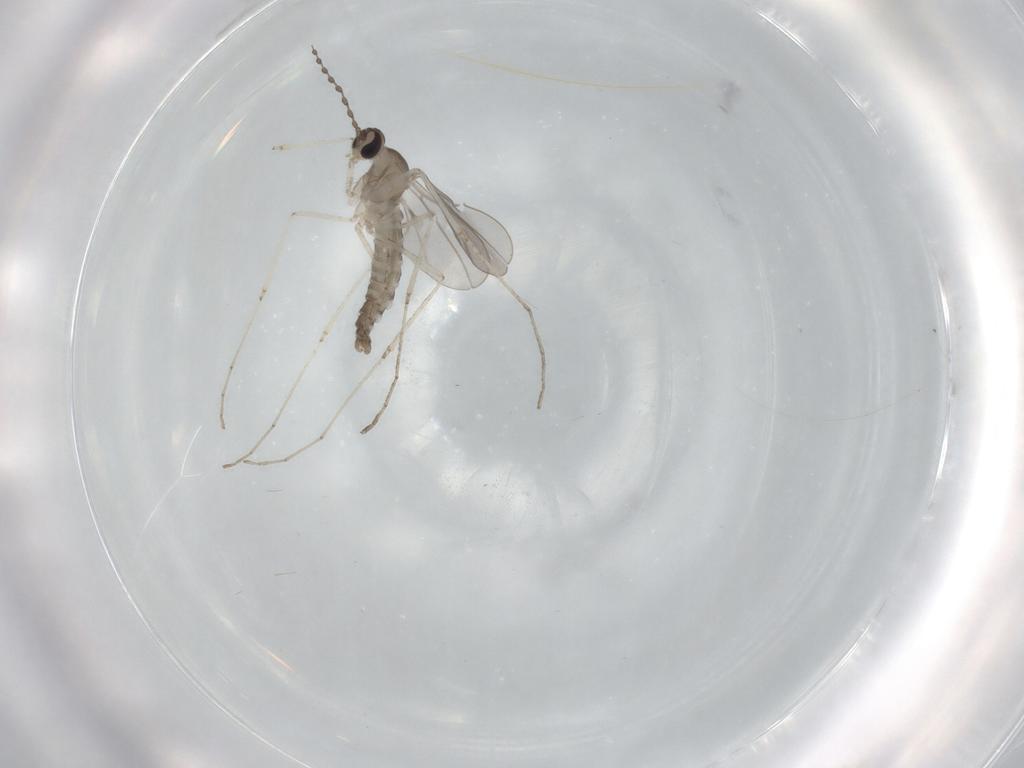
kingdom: Animalia
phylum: Arthropoda
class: Insecta
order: Diptera
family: Cecidomyiidae
